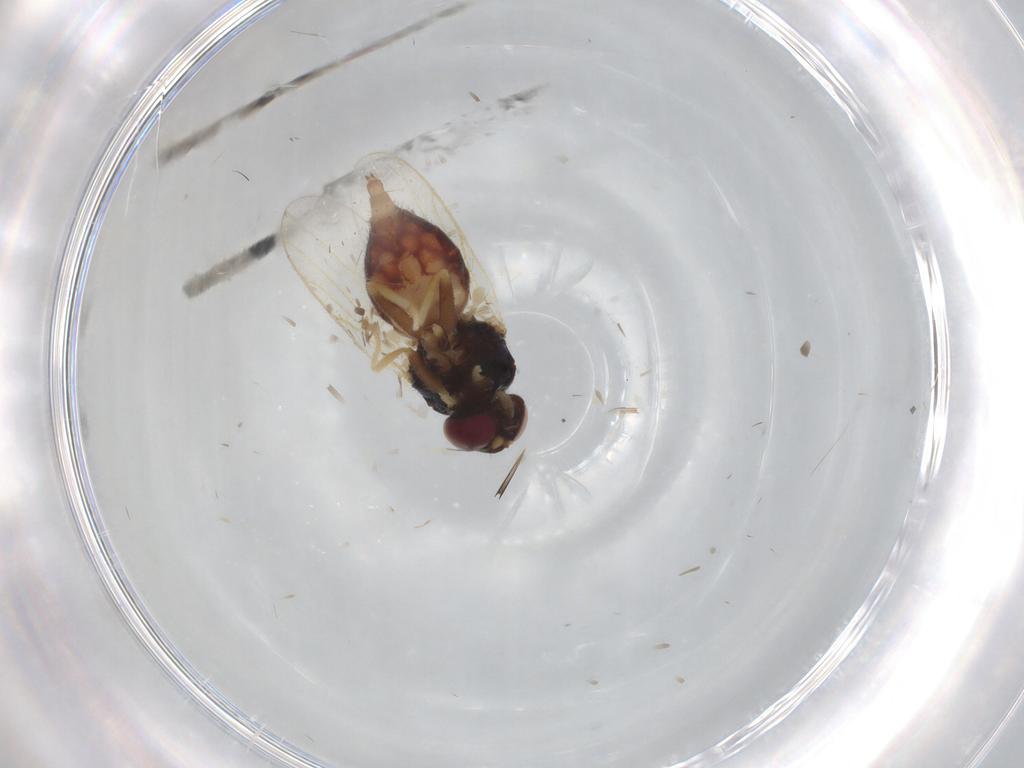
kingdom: Animalia
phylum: Arthropoda
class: Insecta
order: Diptera
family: Chloropidae
